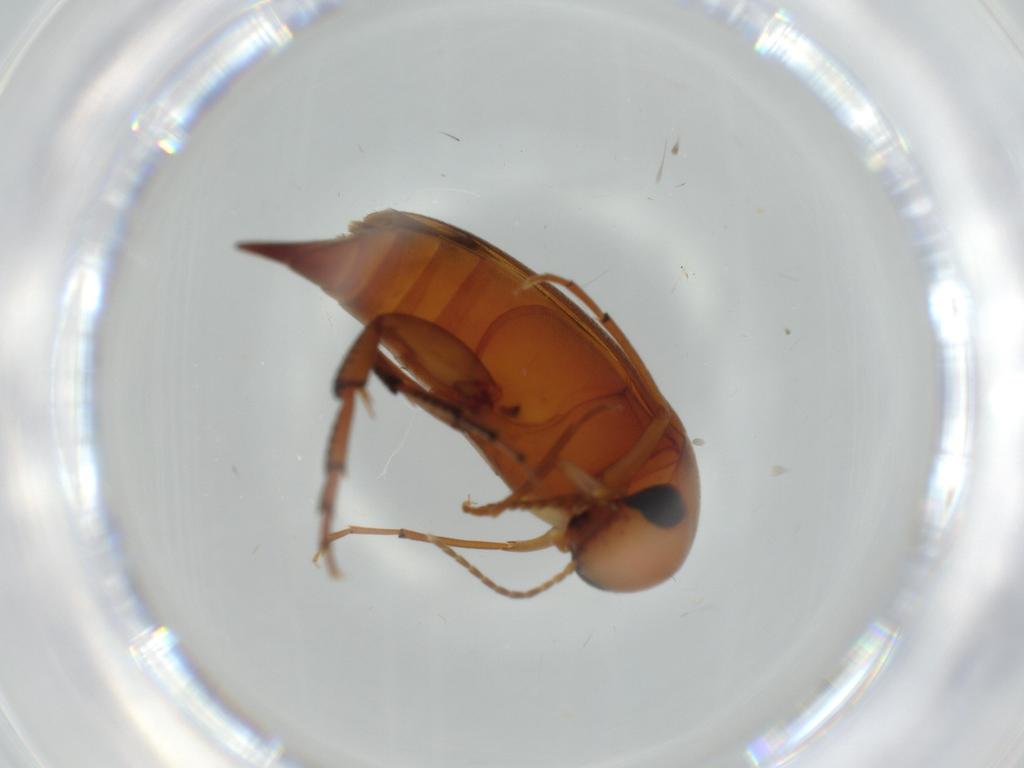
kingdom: Animalia
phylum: Arthropoda
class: Insecta
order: Coleoptera
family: Mordellidae
